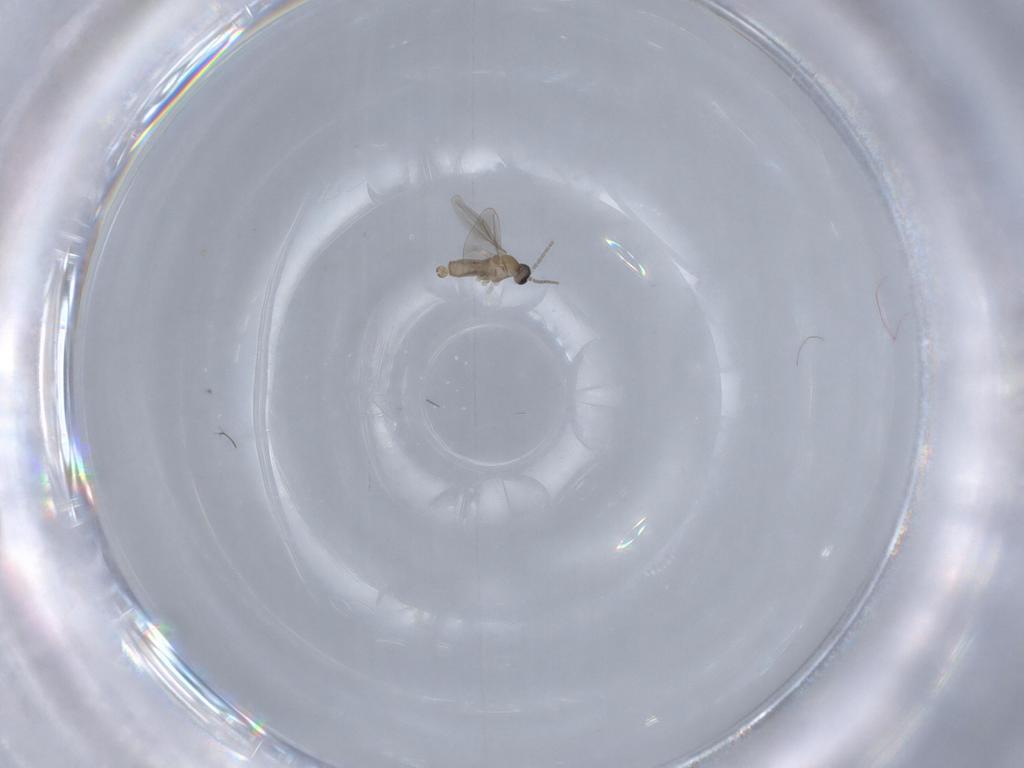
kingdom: Animalia
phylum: Arthropoda
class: Insecta
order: Diptera
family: Cecidomyiidae
